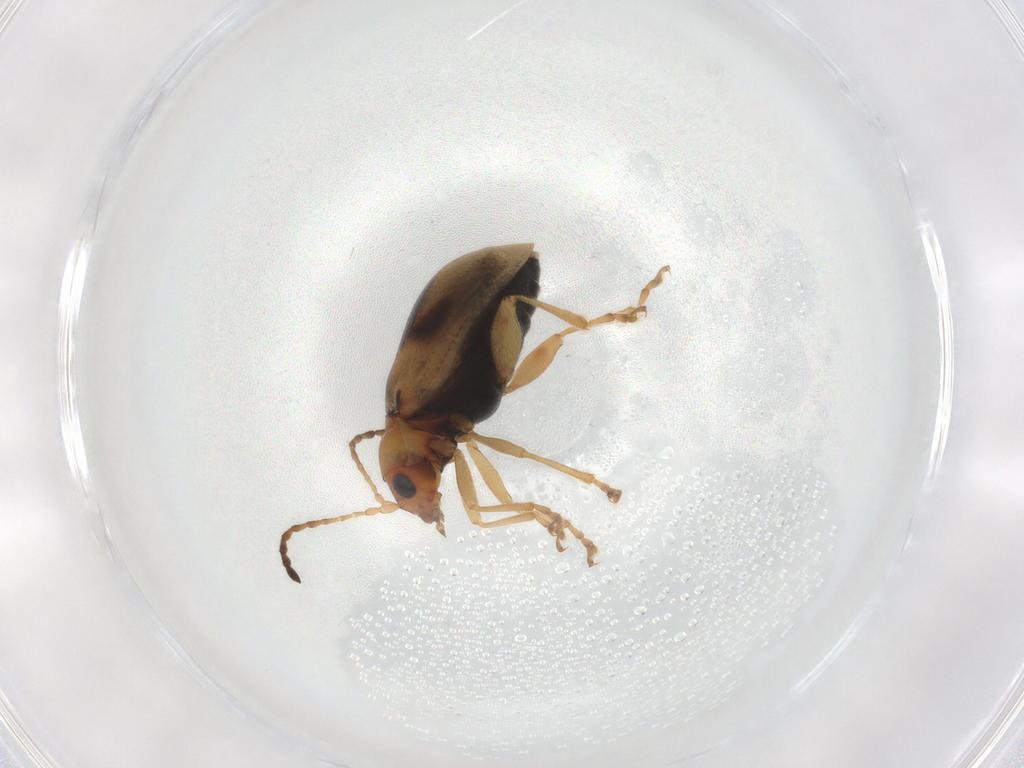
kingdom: Animalia
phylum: Arthropoda
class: Insecta
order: Coleoptera
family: Chrysomelidae
